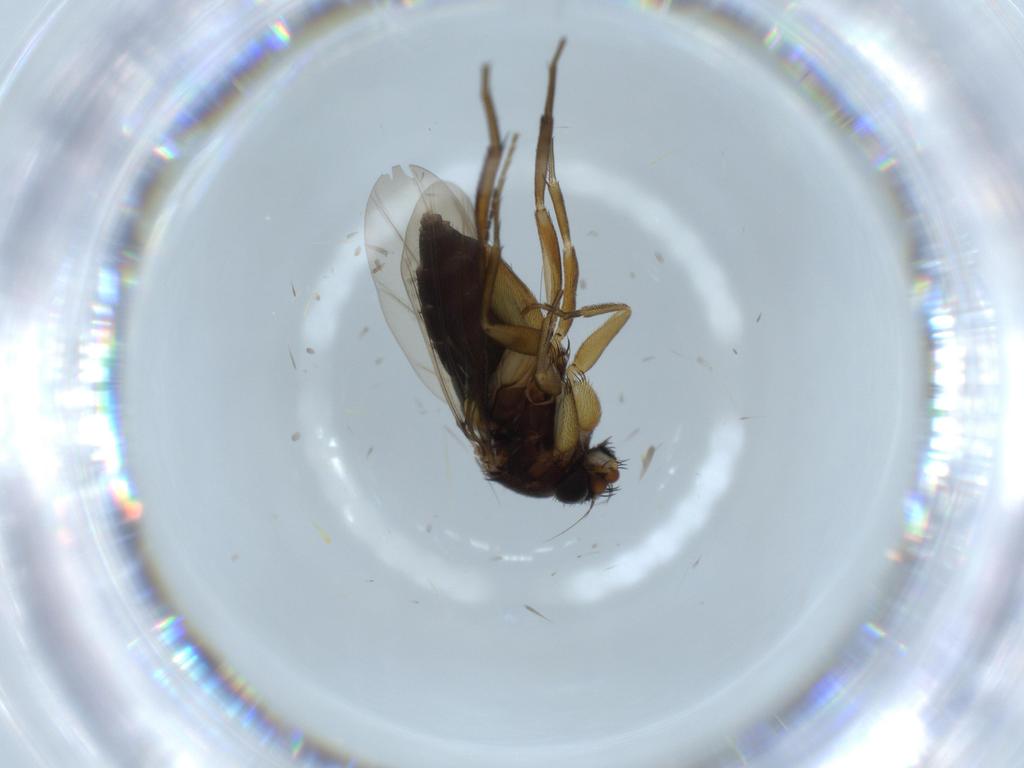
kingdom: Animalia
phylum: Arthropoda
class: Insecta
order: Diptera
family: Phoridae
